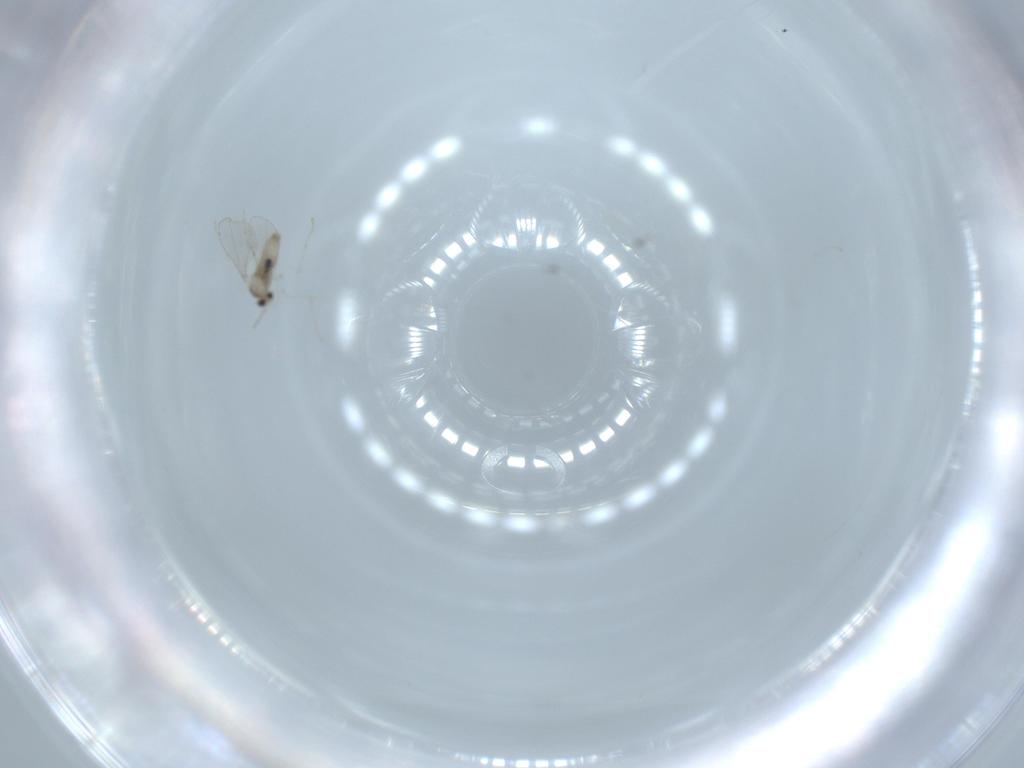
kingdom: Animalia
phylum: Arthropoda
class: Insecta
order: Diptera
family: Cecidomyiidae
